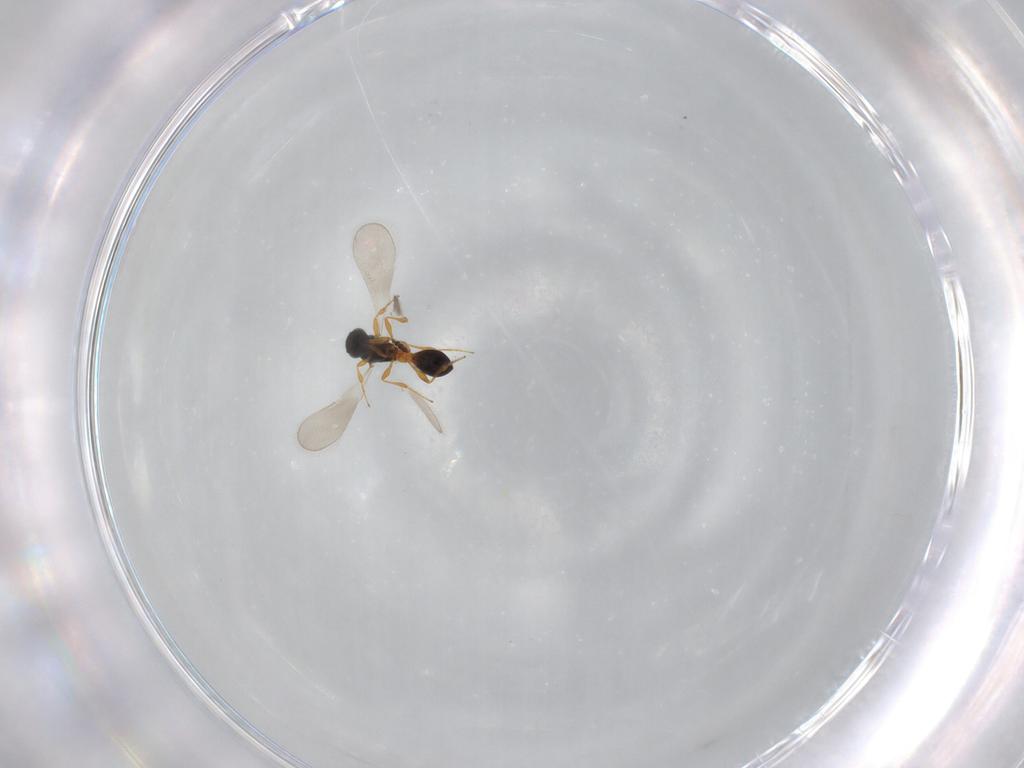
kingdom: Animalia
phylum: Arthropoda
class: Insecta
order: Hymenoptera
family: Platygastridae
